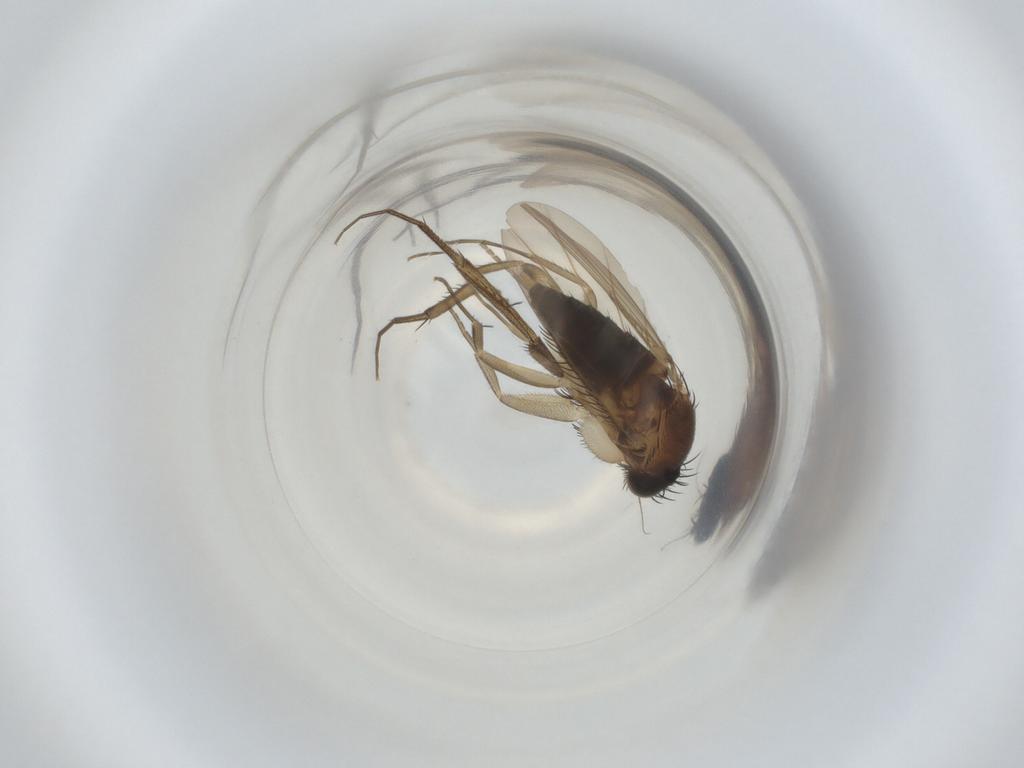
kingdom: Animalia
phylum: Arthropoda
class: Insecta
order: Diptera
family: Phoridae
